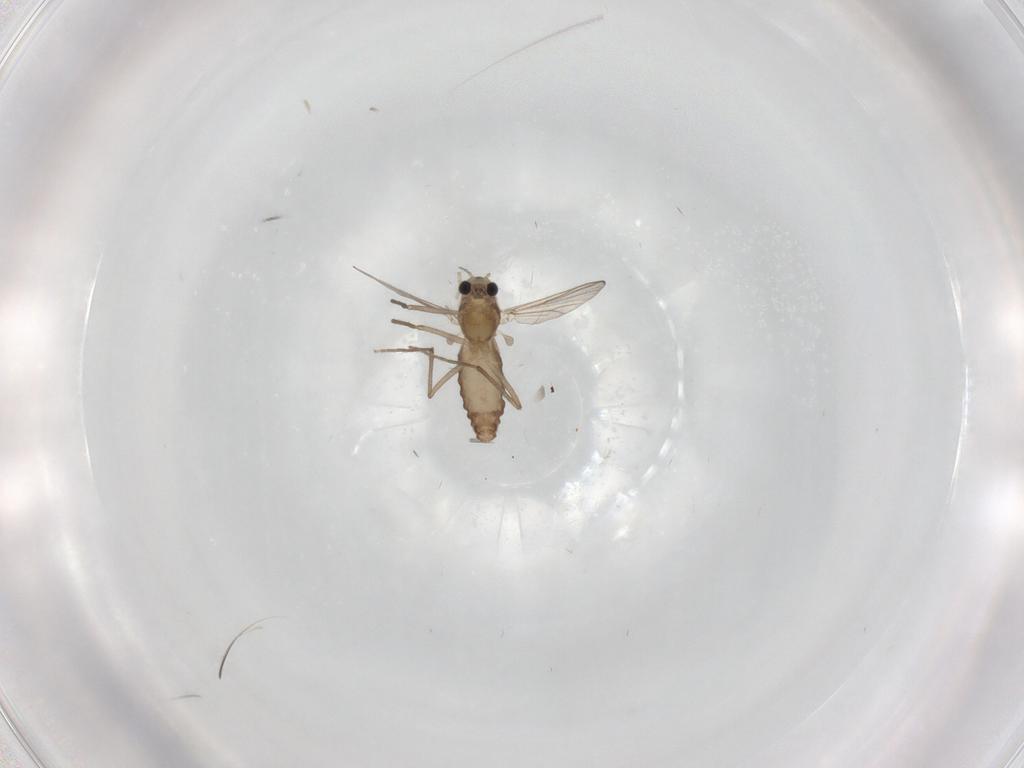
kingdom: Animalia
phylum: Arthropoda
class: Insecta
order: Diptera
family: Chironomidae
